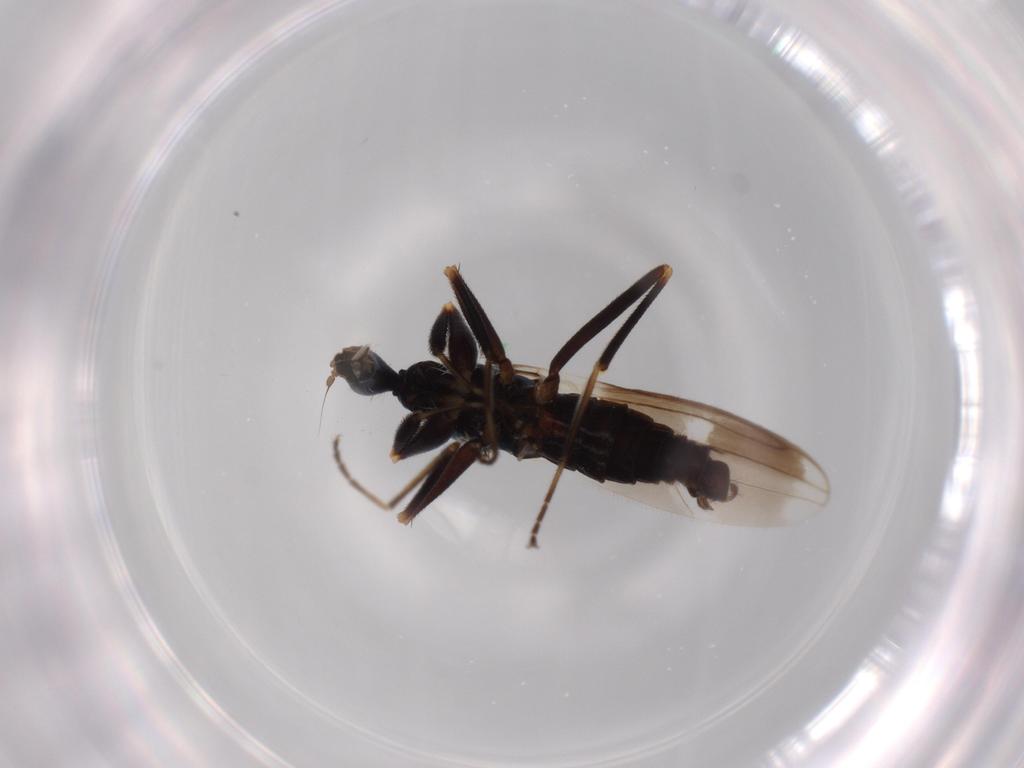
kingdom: Animalia
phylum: Arthropoda
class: Insecta
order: Diptera
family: Hybotidae
